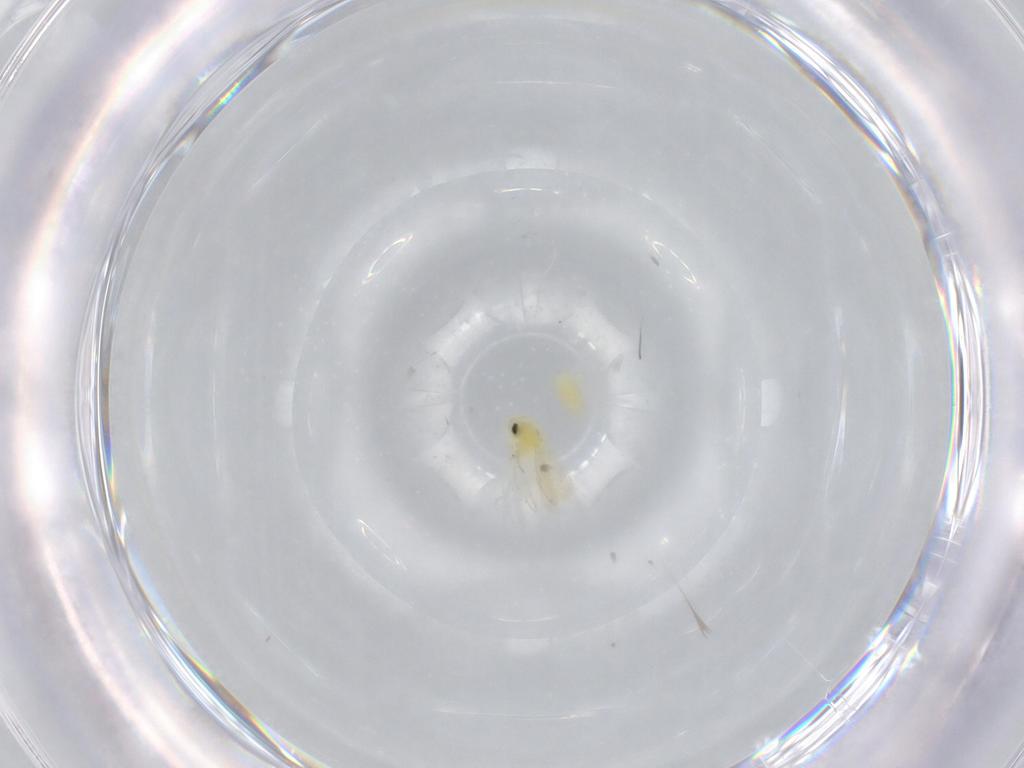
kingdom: Animalia
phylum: Arthropoda
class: Insecta
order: Hemiptera
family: Aleyrodidae
